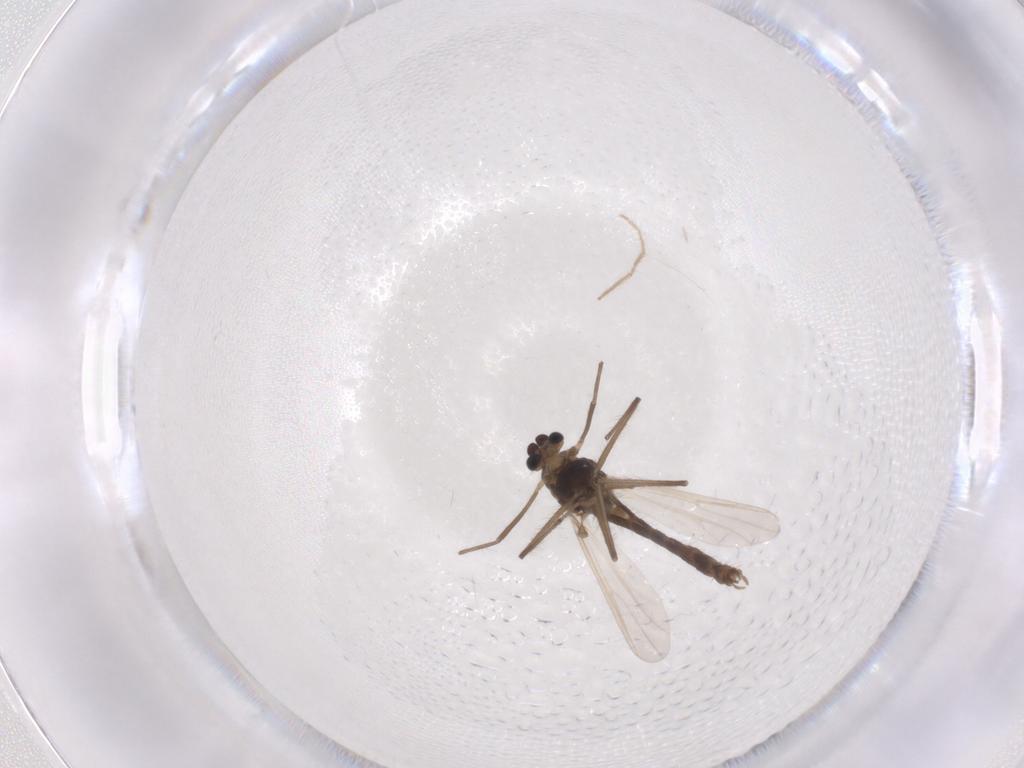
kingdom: Animalia
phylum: Arthropoda
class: Insecta
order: Diptera
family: Chironomidae
